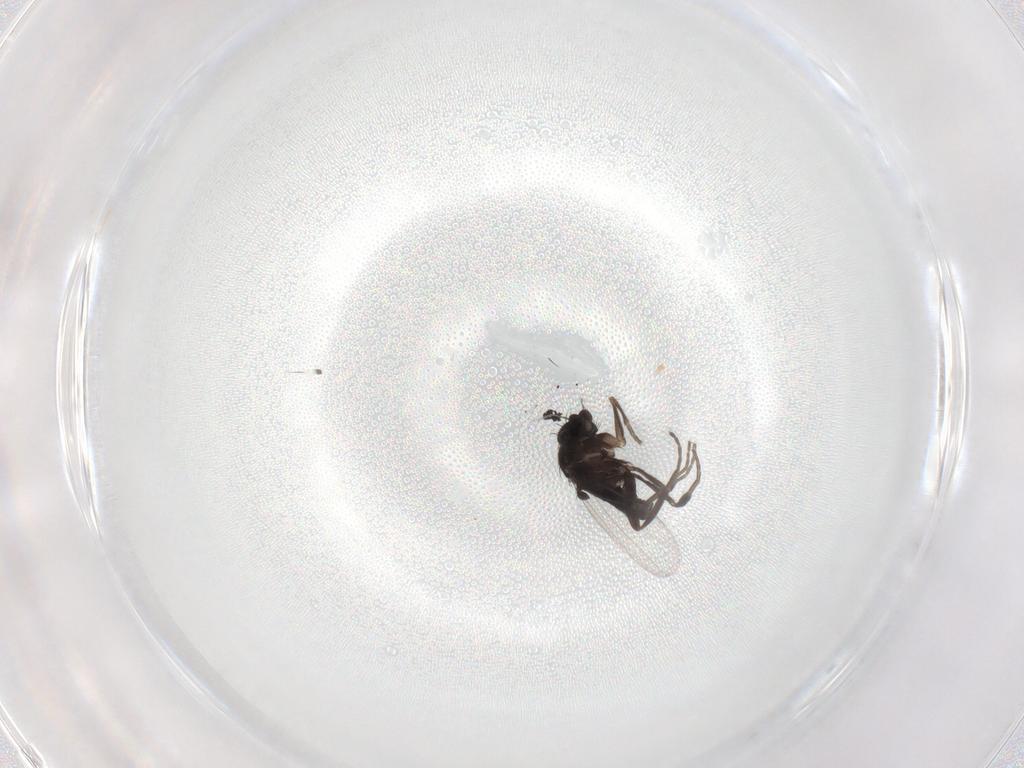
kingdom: Animalia
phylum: Arthropoda
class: Insecta
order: Diptera
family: Phoridae
